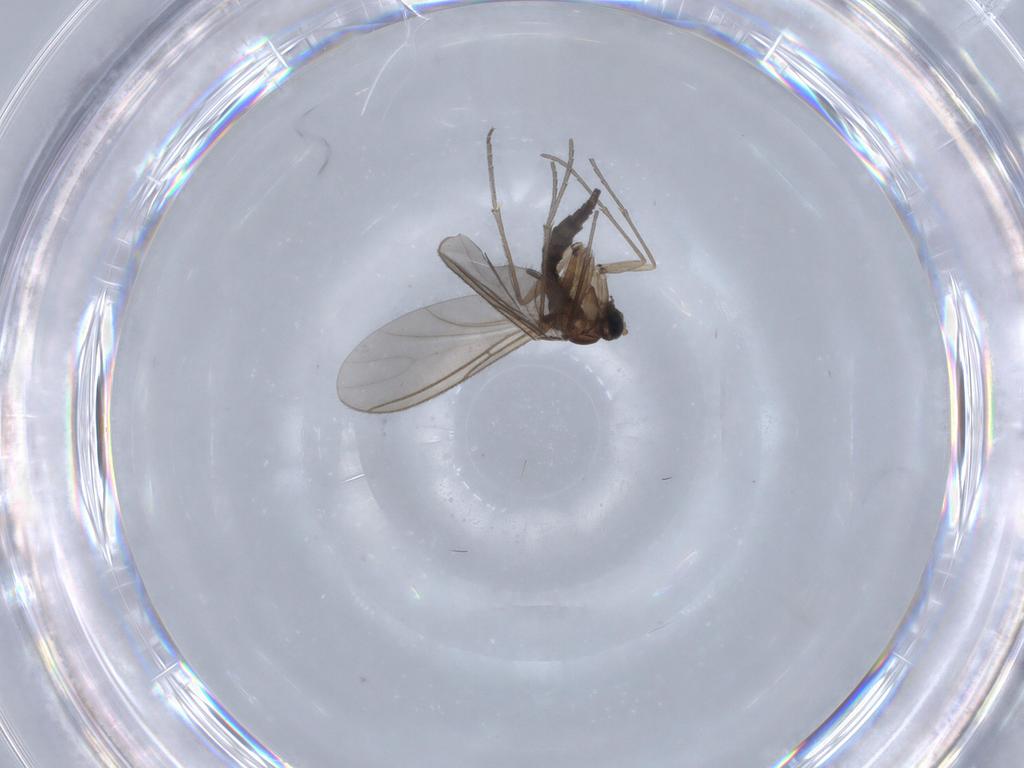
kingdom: Animalia
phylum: Arthropoda
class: Insecta
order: Diptera
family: Sciaridae
